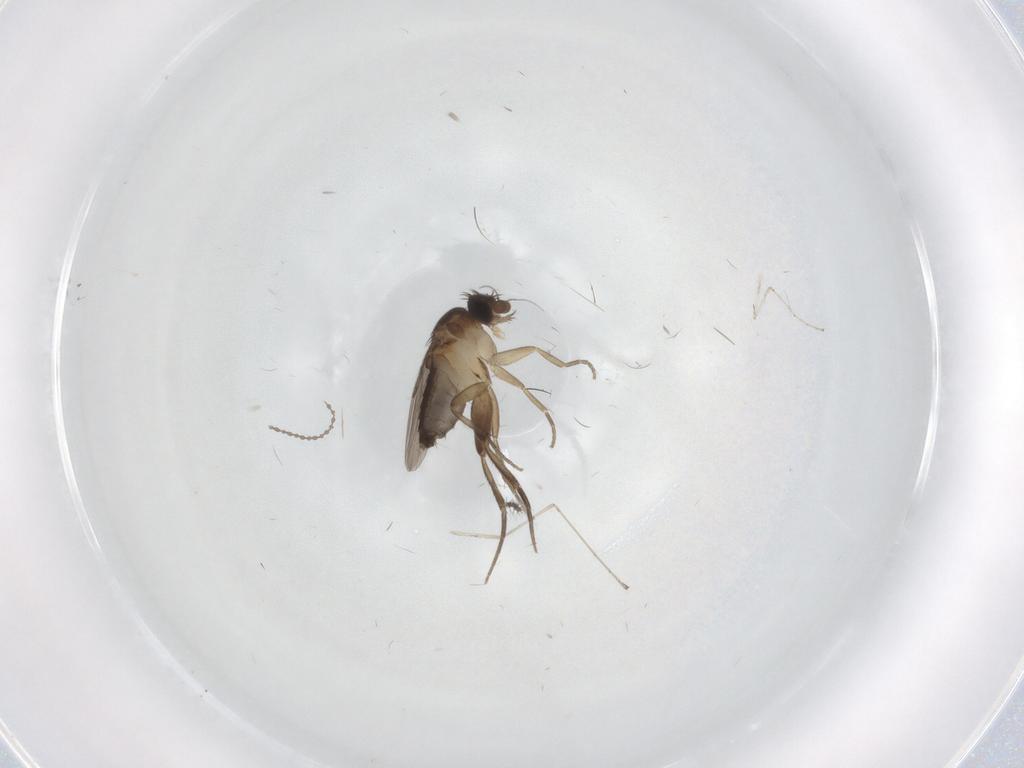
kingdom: Animalia
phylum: Arthropoda
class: Insecta
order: Diptera
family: Phoridae
